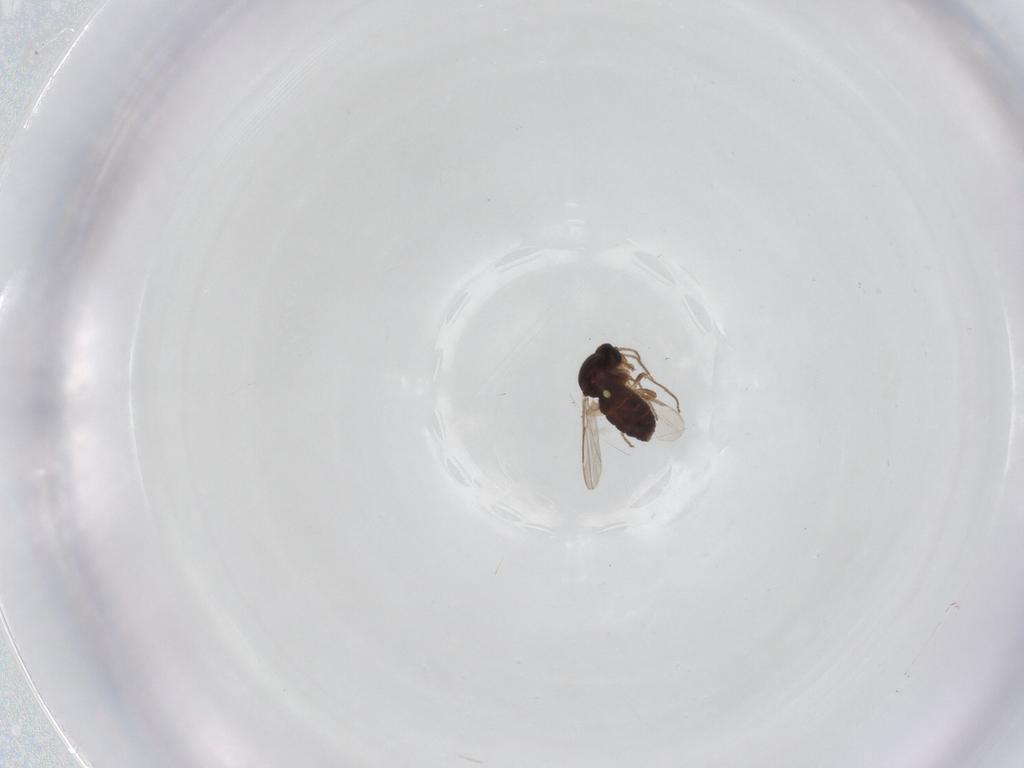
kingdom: Animalia
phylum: Arthropoda
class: Insecta
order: Diptera
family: Ceratopogonidae
